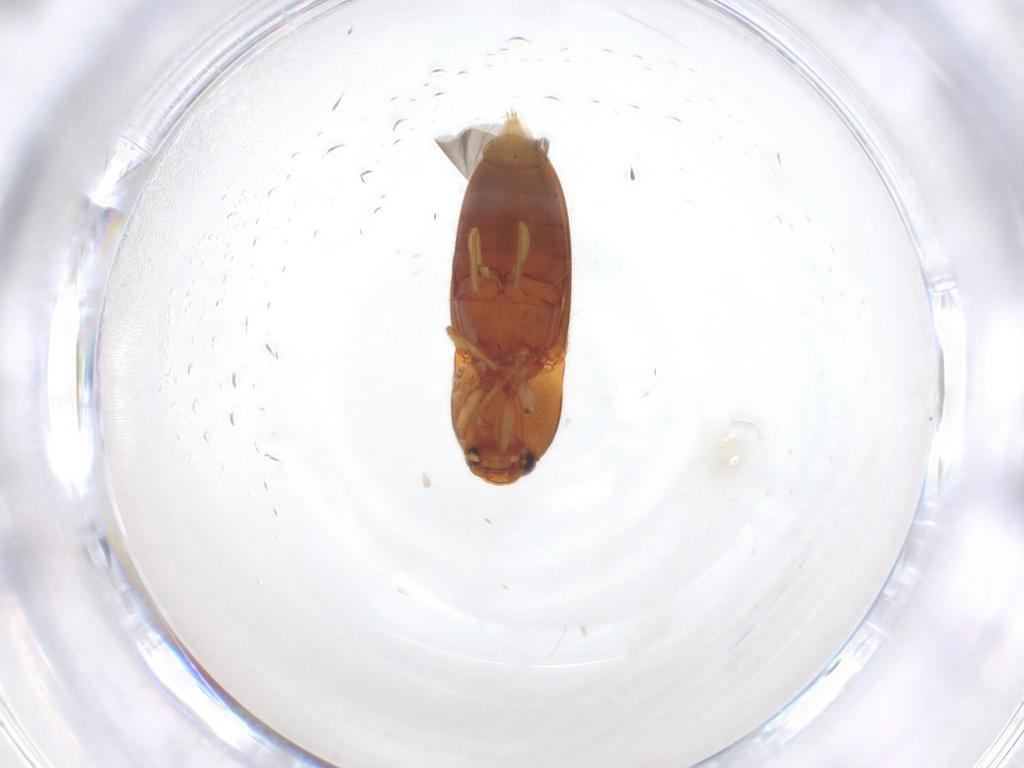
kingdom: Animalia
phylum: Arthropoda
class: Insecta
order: Coleoptera
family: Elateridae
